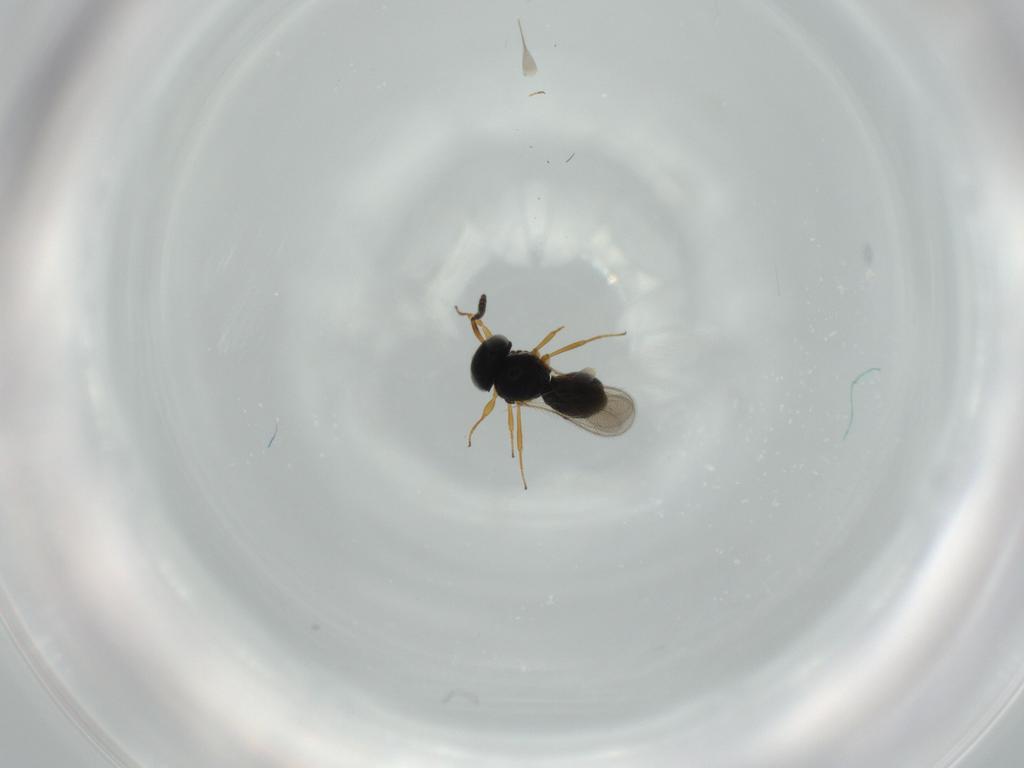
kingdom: Animalia
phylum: Arthropoda
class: Insecta
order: Hymenoptera
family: Scelionidae
